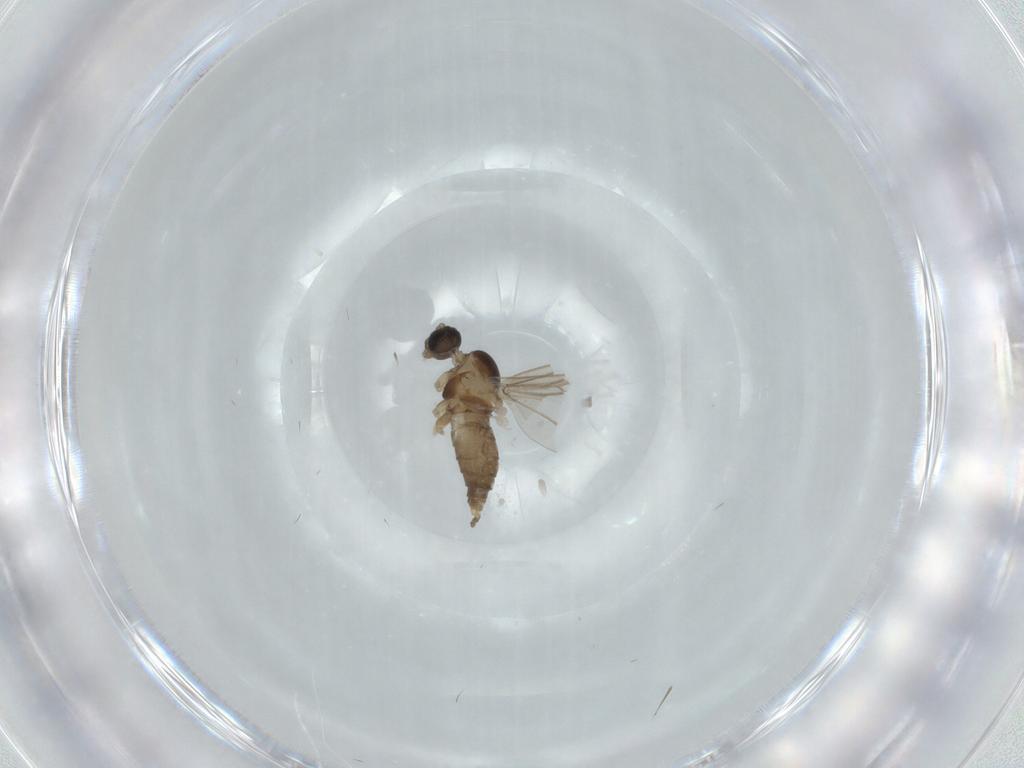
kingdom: Animalia
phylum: Arthropoda
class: Insecta
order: Diptera
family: Cecidomyiidae
